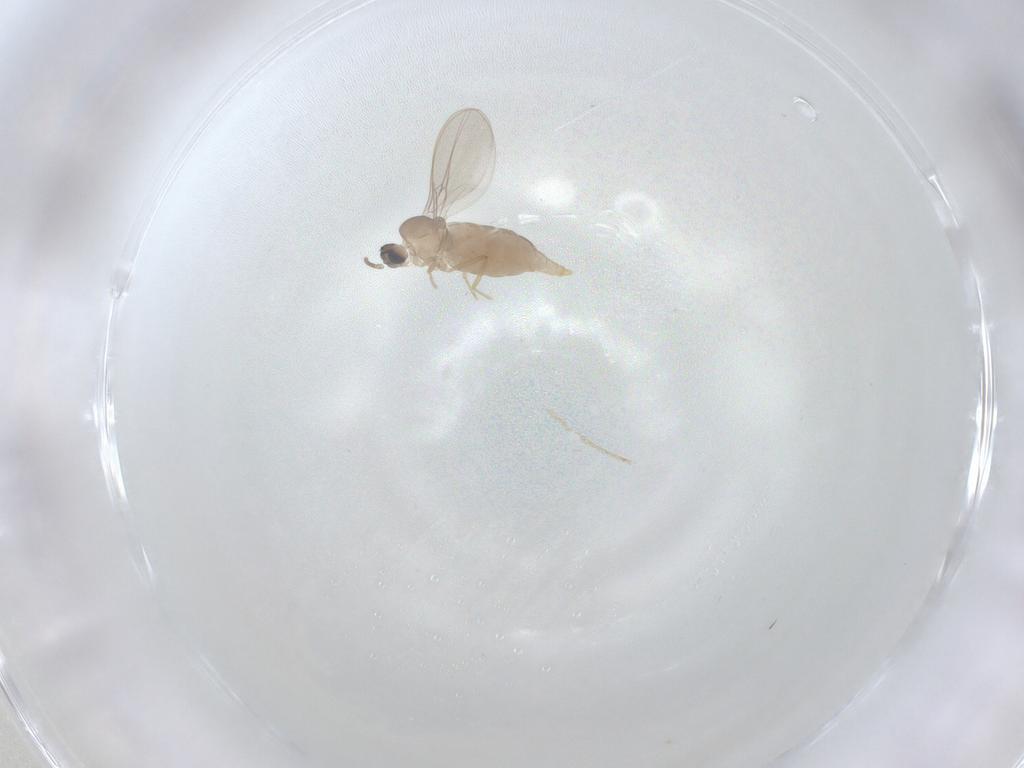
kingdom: Animalia
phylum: Arthropoda
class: Insecta
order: Diptera
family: Cecidomyiidae
